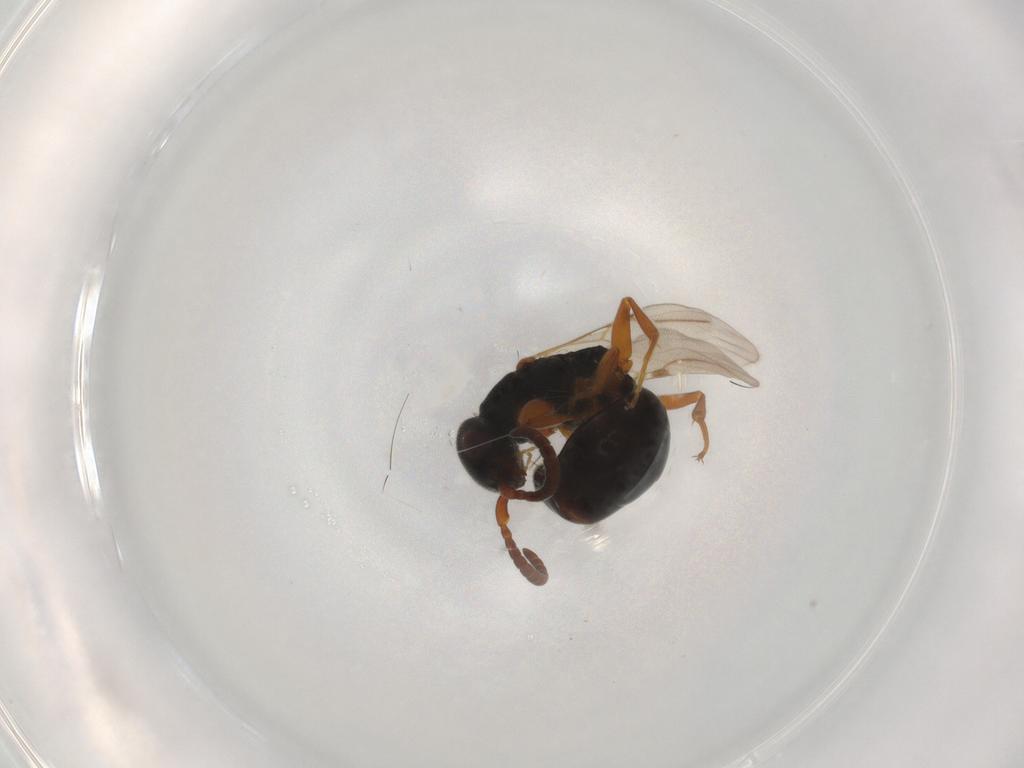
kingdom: Animalia
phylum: Arthropoda
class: Insecta
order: Hymenoptera
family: Bethylidae
